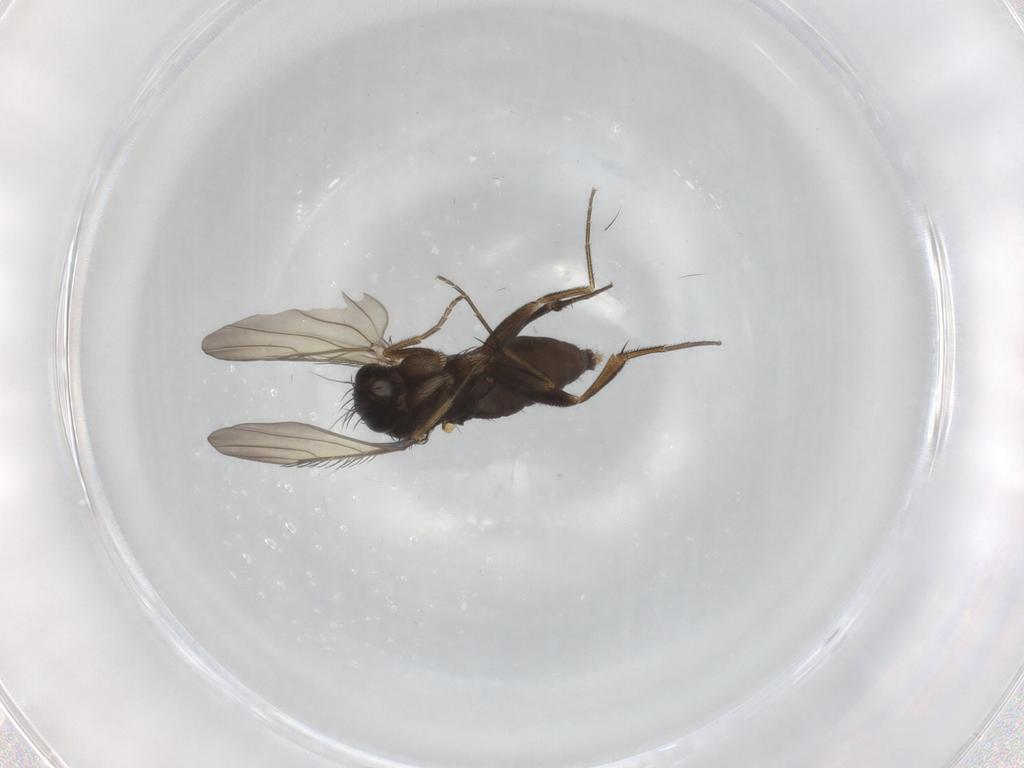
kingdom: Animalia
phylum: Arthropoda
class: Insecta
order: Diptera
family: Phoridae
